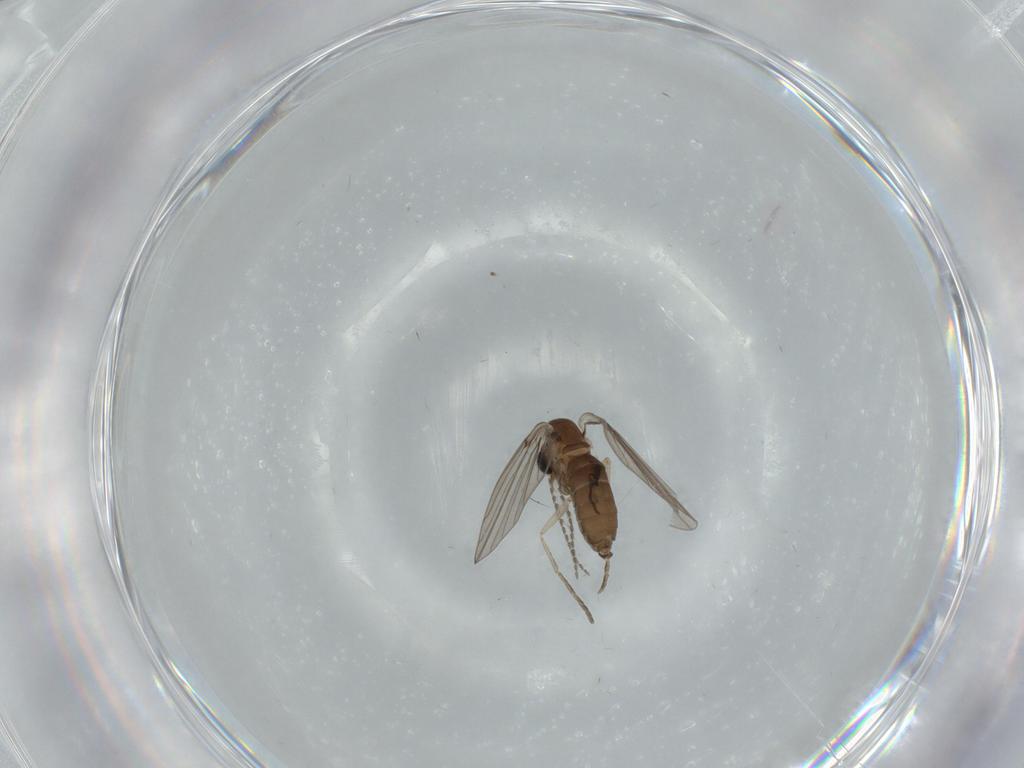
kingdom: Animalia
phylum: Arthropoda
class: Insecta
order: Diptera
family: Psychodidae
